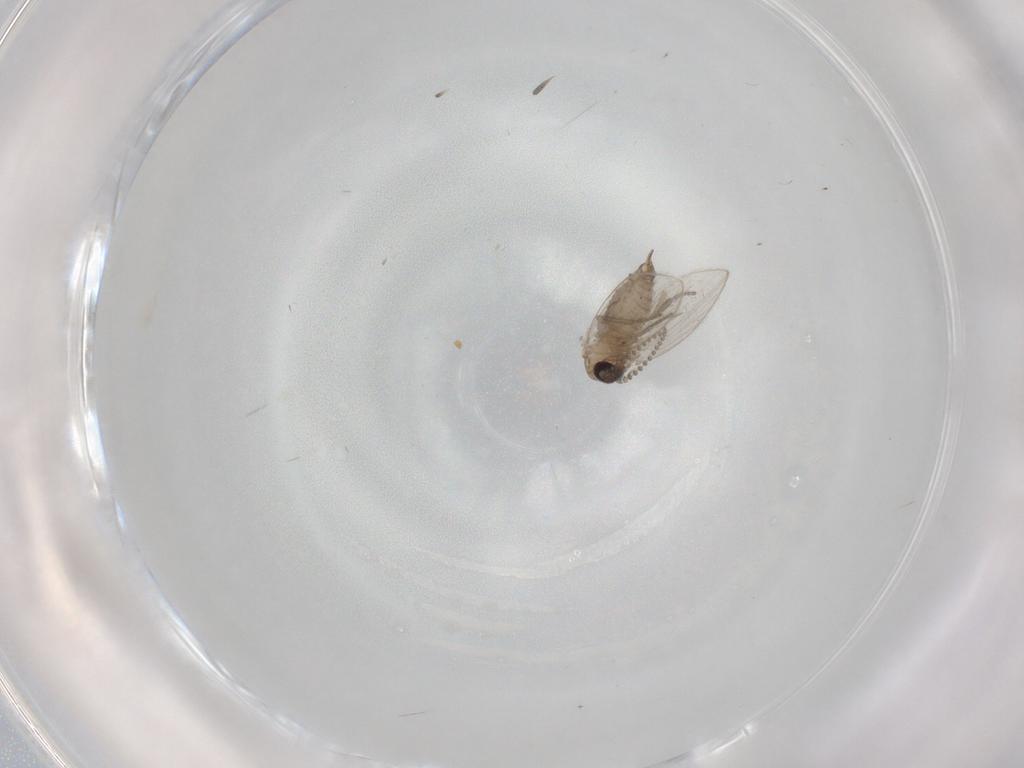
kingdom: Animalia
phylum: Arthropoda
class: Insecta
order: Diptera
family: Psychodidae
